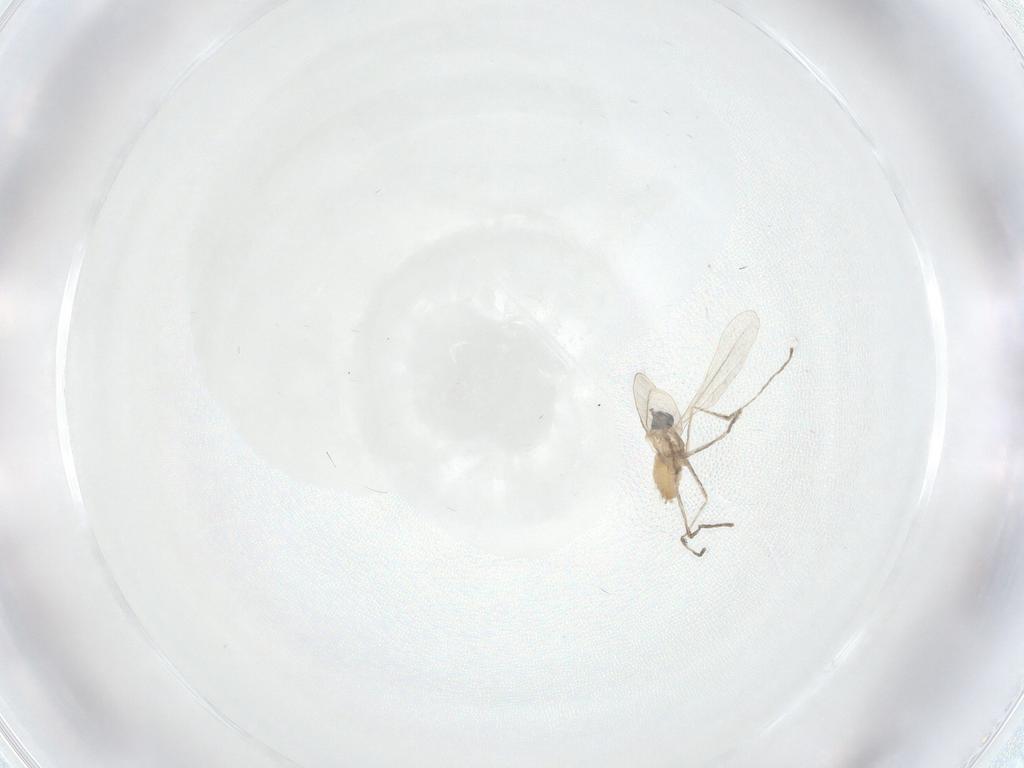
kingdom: Animalia
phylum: Arthropoda
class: Insecta
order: Diptera
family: Cecidomyiidae
